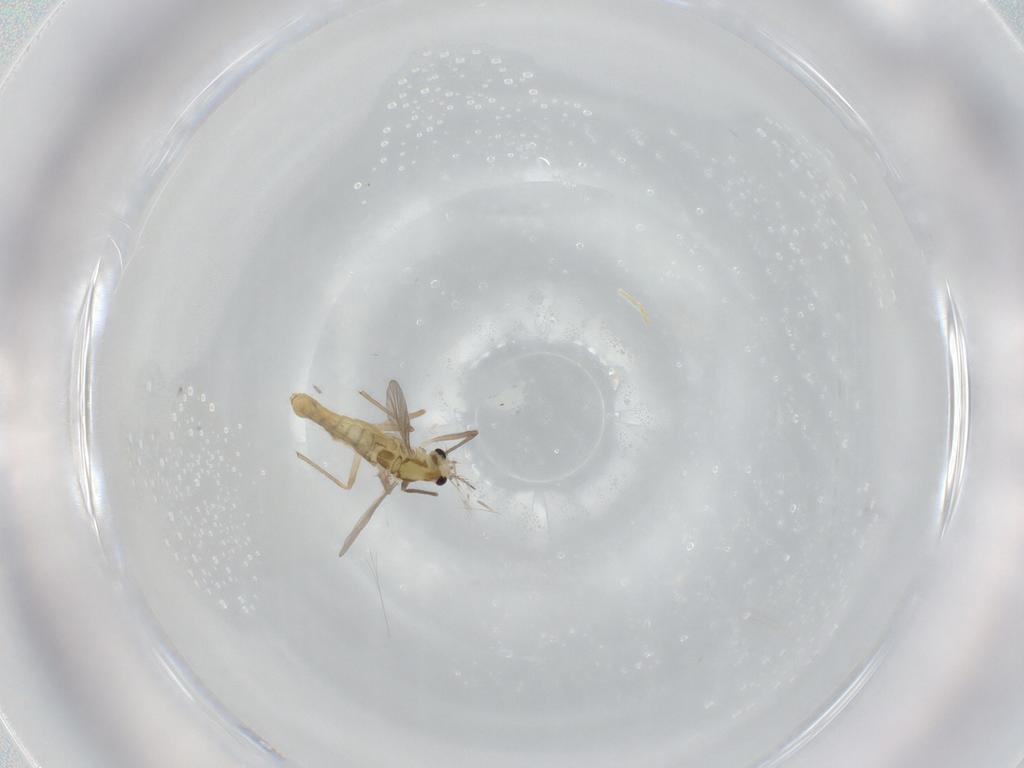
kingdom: Animalia
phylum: Arthropoda
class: Insecta
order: Diptera
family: Chironomidae
